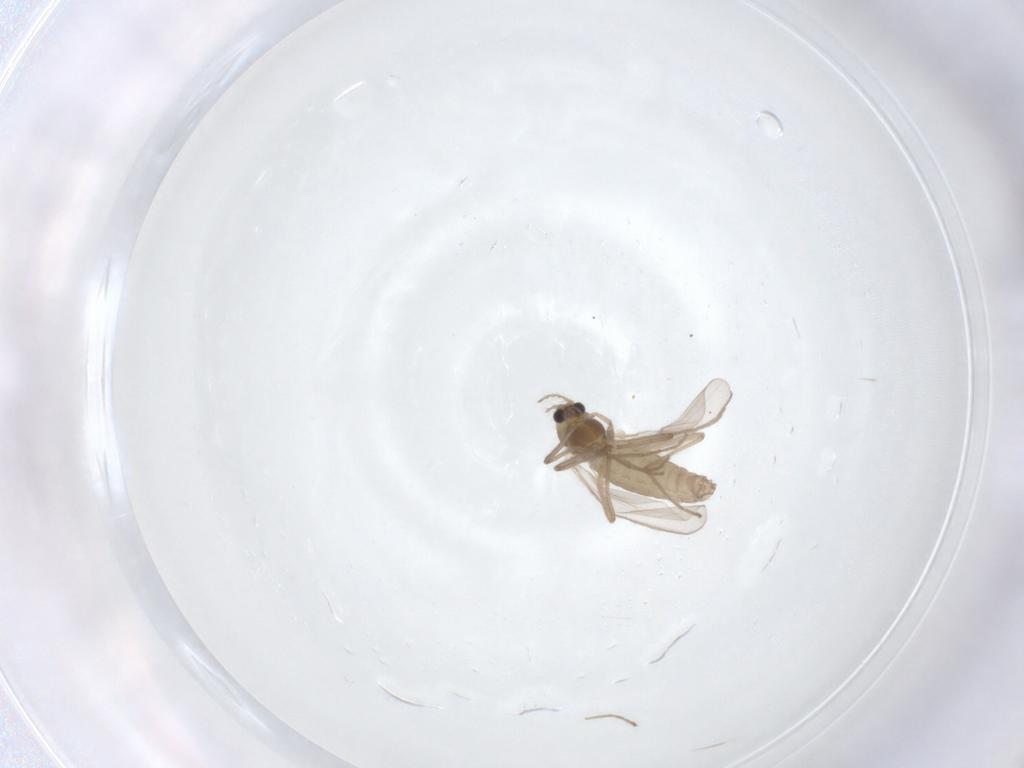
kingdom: Animalia
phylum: Arthropoda
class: Insecta
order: Diptera
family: Chironomidae
